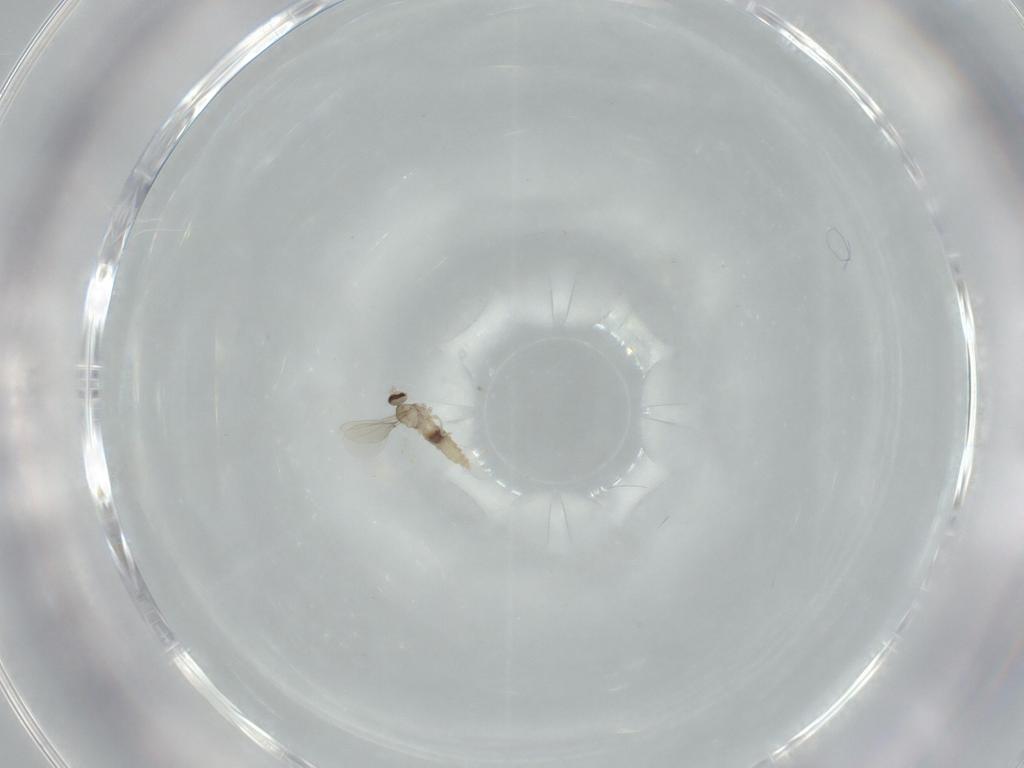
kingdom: Animalia
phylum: Arthropoda
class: Insecta
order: Diptera
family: Cecidomyiidae
